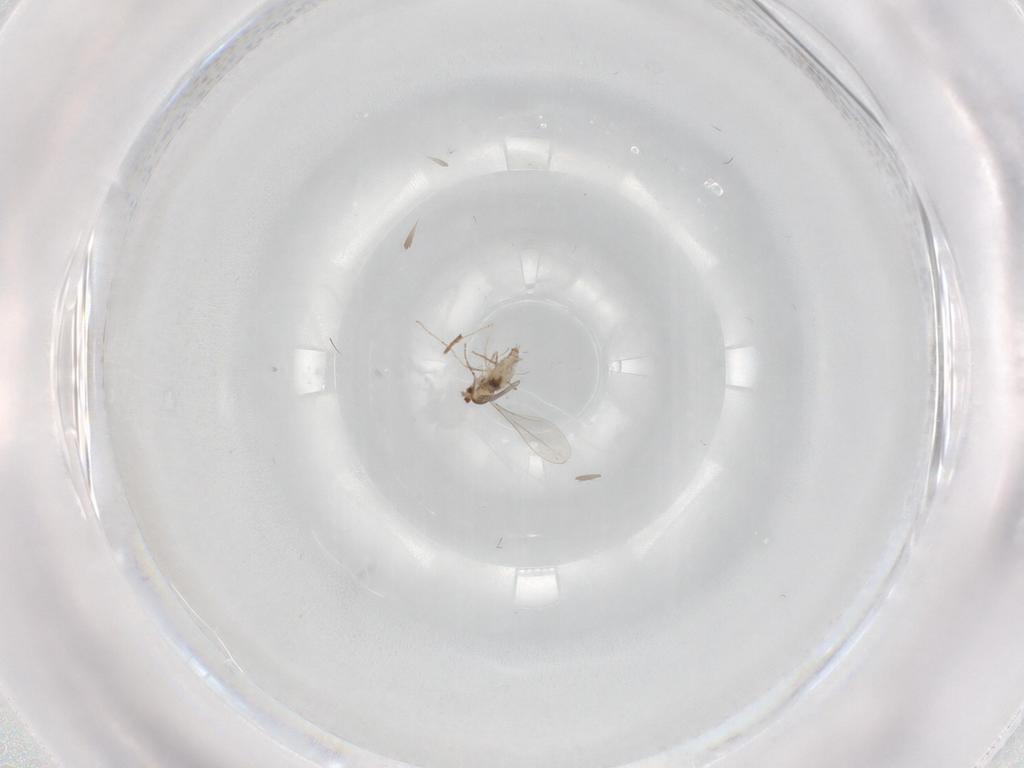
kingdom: Animalia
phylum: Arthropoda
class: Insecta
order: Diptera
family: Cecidomyiidae
